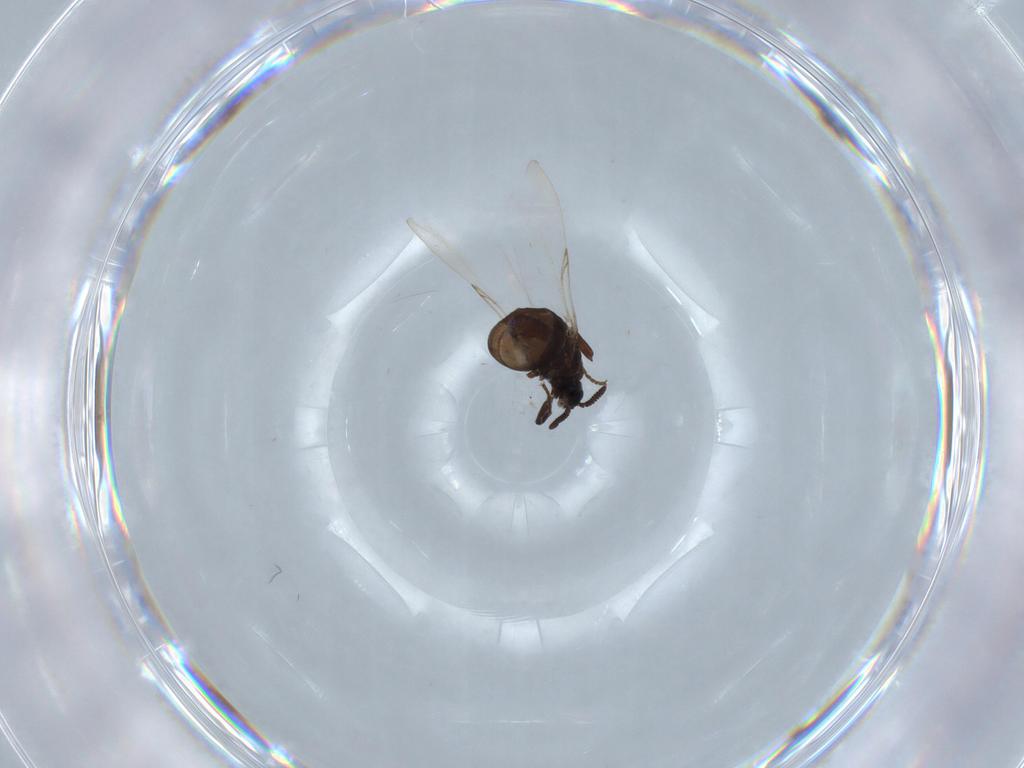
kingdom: Animalia
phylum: Arthropoda
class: Insecta
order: Diptera
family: Scatopsidae
